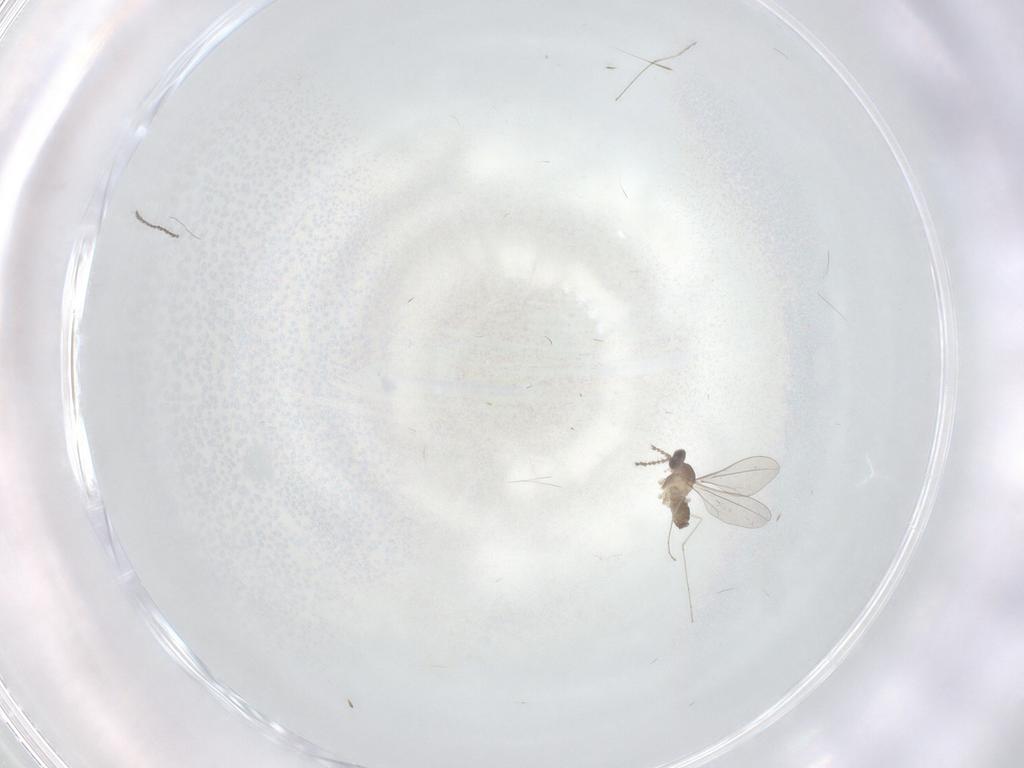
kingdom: Animalia
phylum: Arthropoda
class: Insecta
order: Diptera
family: Cecidomyiidae
